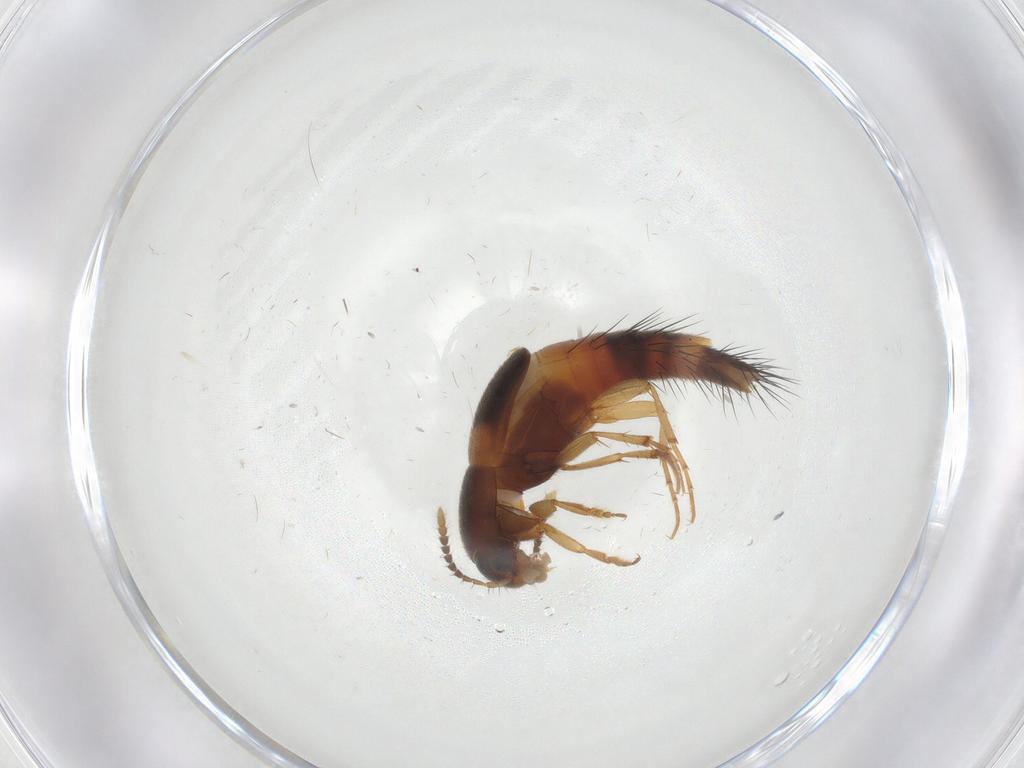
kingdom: Animalia
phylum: Arthropoda
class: Insecta
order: Coleoptera
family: Staphylinidae
